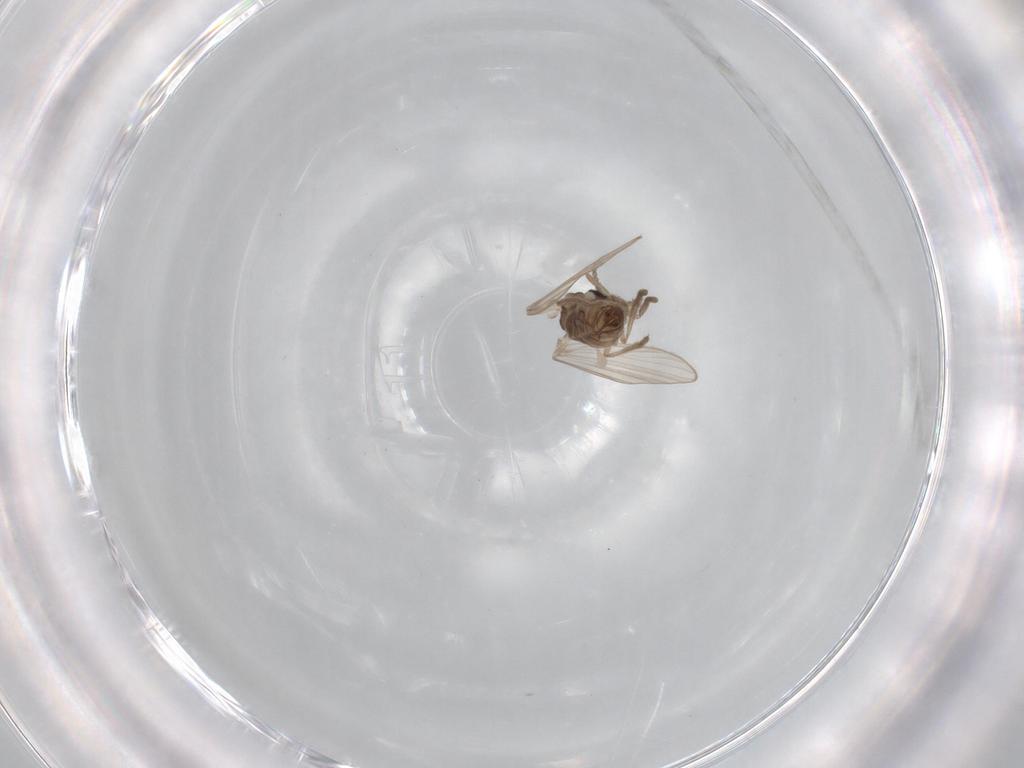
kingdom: Animalia
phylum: Arthropoda
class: Insecta
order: Diptera
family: Psychodidae
